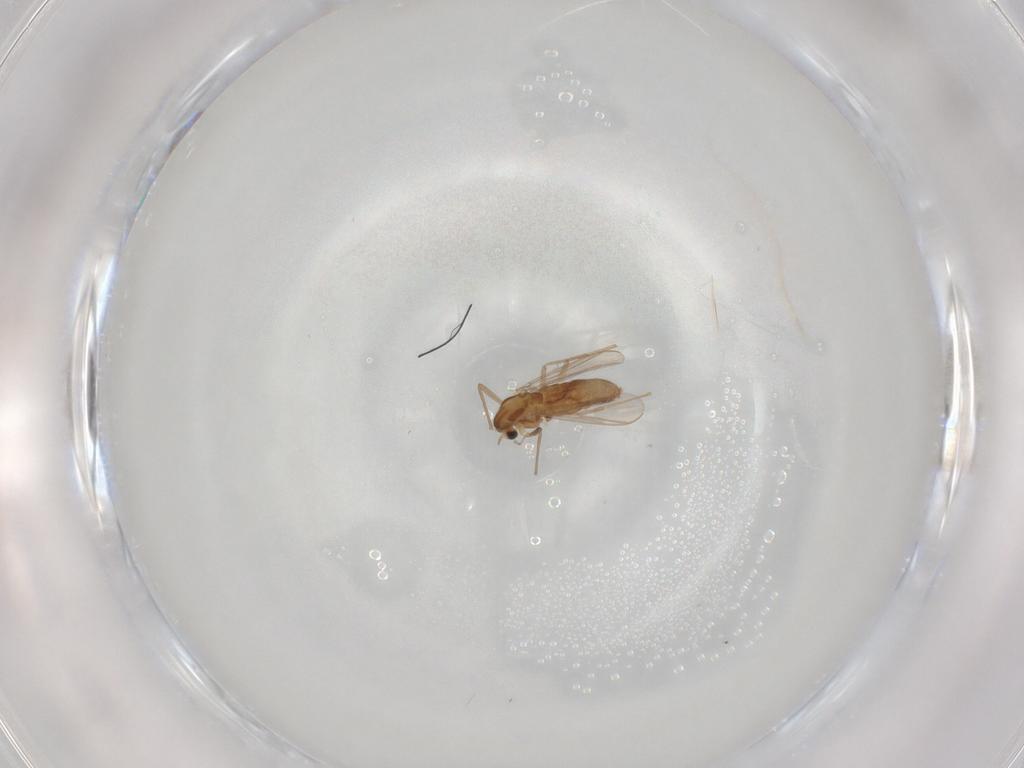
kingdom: Animalia
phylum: Arthropoda
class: Insecta
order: Diptera
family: Chironomidae
